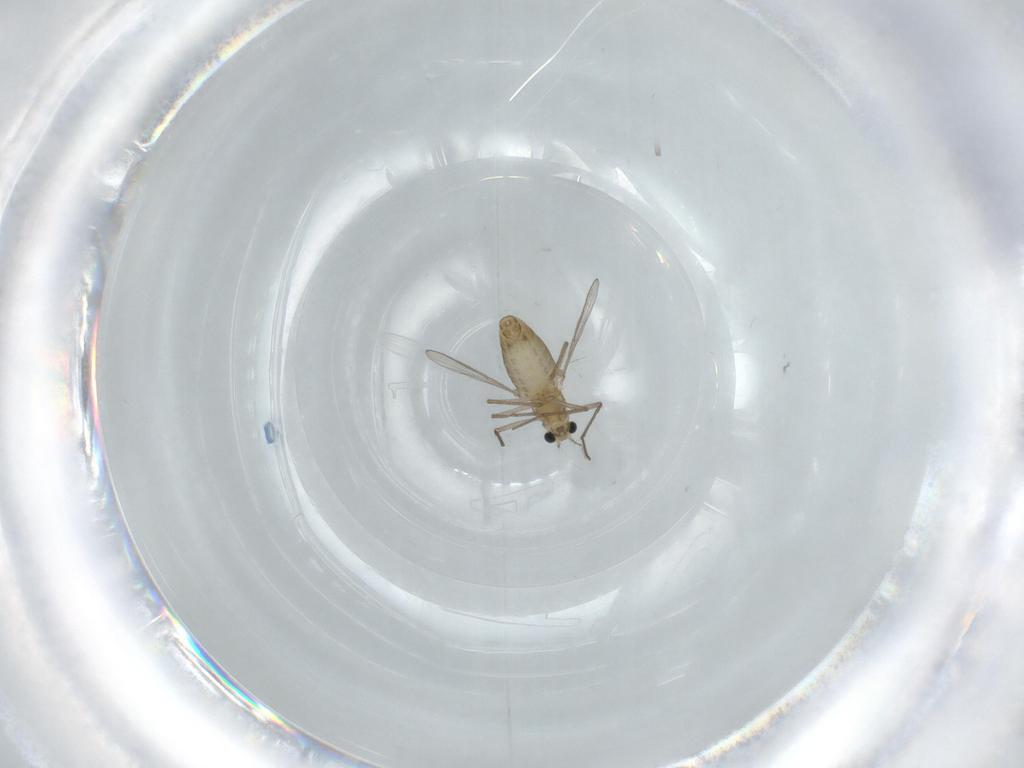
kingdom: Animalia
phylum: Arthropoda
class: Insecta
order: Diptera
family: Chironomidae
